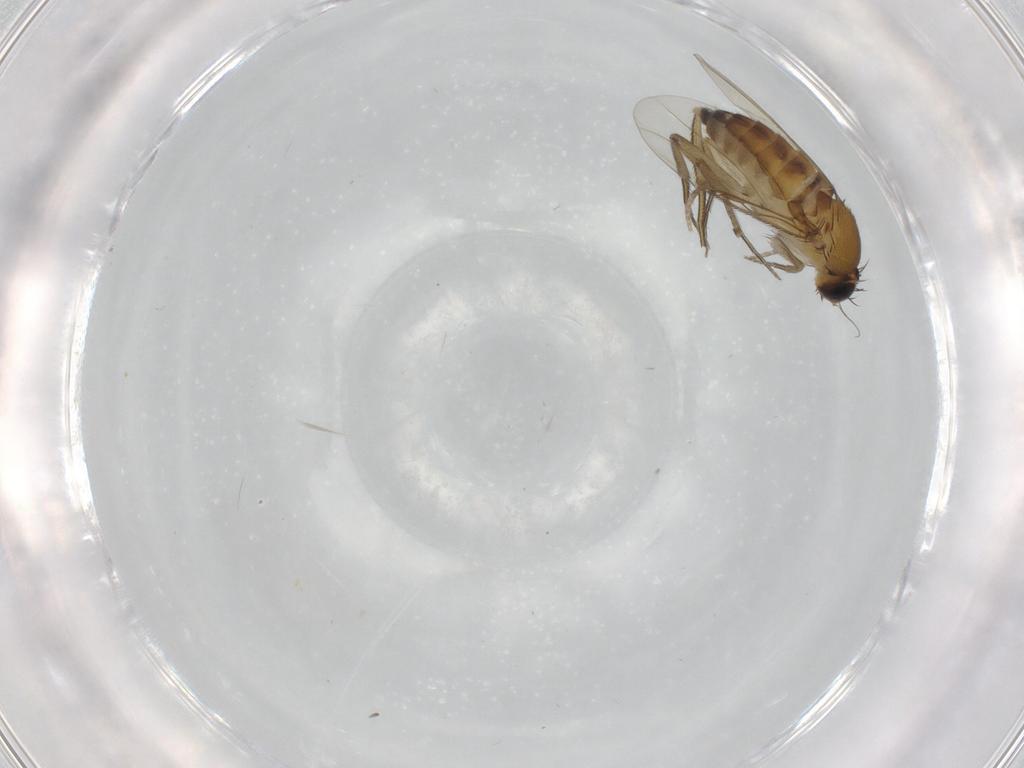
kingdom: Animalia
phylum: Arthropoda
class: Insecta
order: Diptera
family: Phoridae
